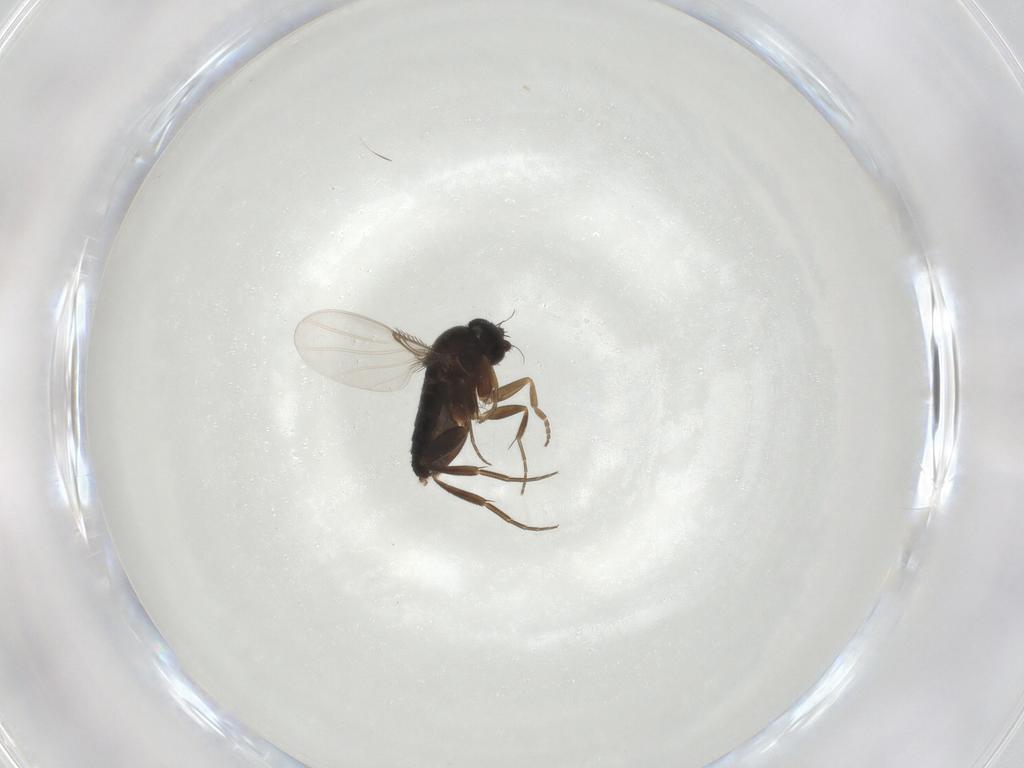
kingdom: Animalia
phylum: Arthropoda
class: Insecta
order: Diptera
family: Phoridae
